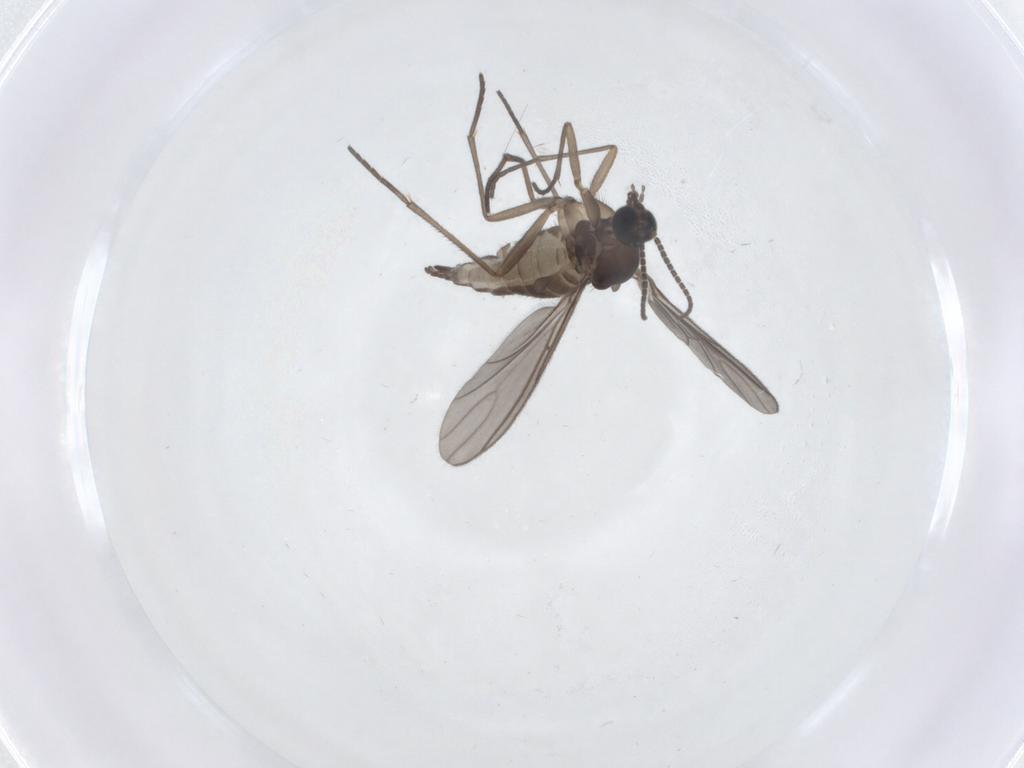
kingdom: Animalia
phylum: Arthropoda
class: Insecta
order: Diptera
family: Sciaridae
